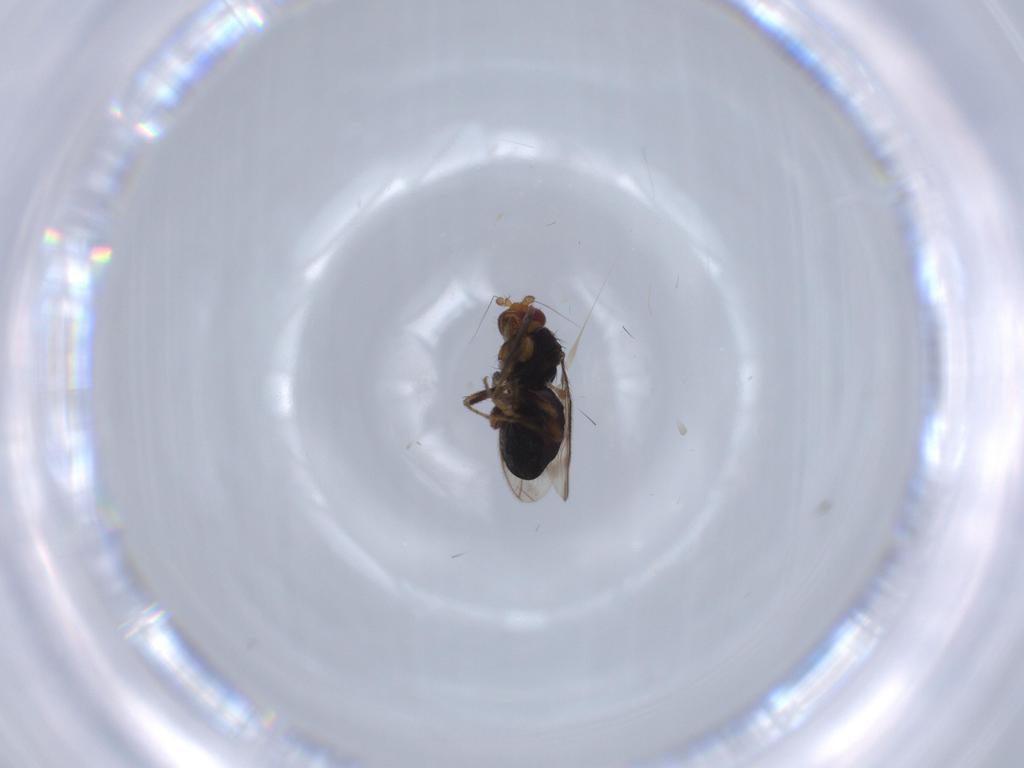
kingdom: Animalia
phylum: Arthropoda
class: Insecta
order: Diptera
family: Sphaeroceridae
